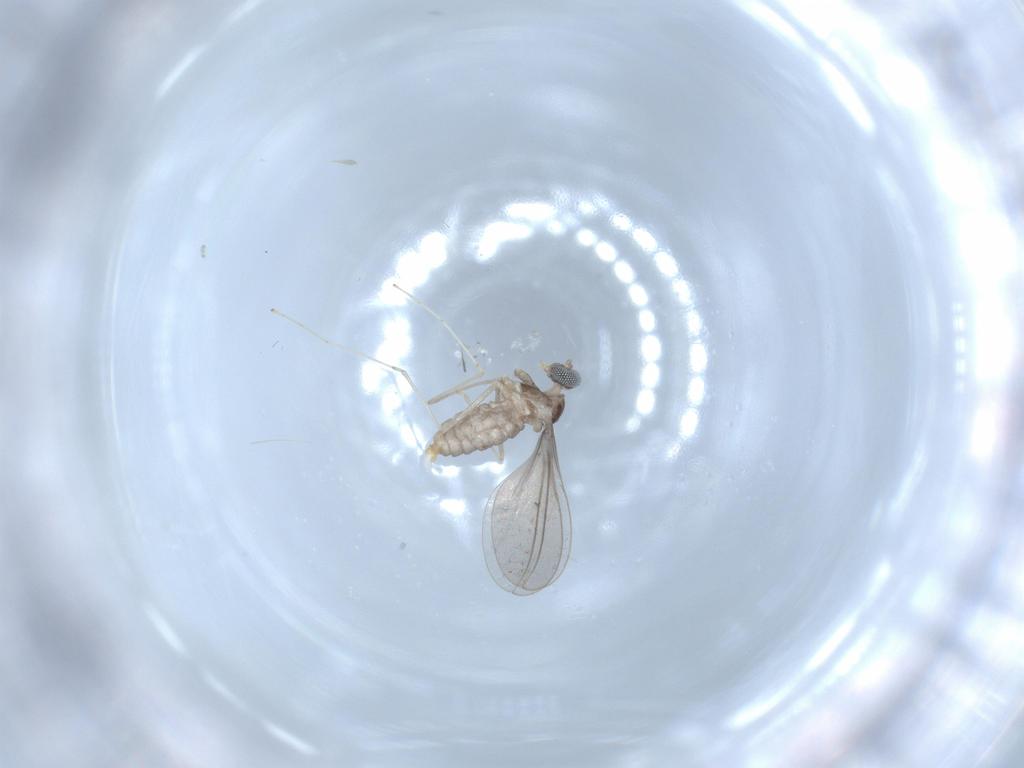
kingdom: Animalia
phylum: Arthropoda
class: Insecta
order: Diptera
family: Cecidomyiidae
